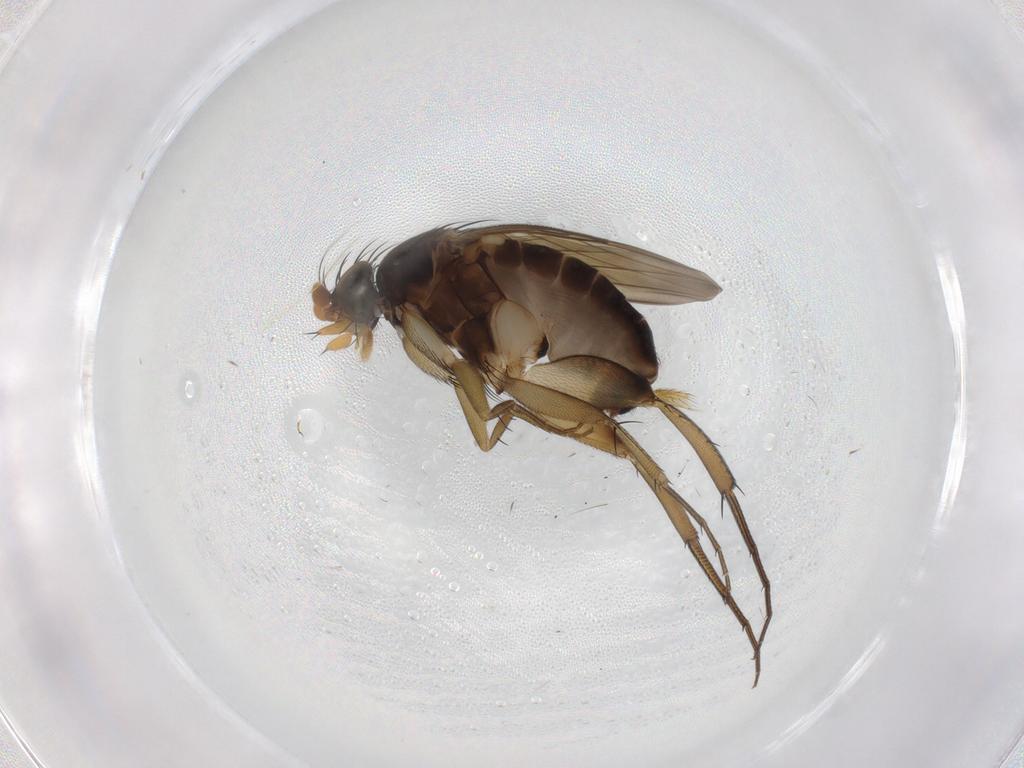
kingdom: Animalia
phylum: Arthropoda
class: Insecta
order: Diptera
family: Phoridae
